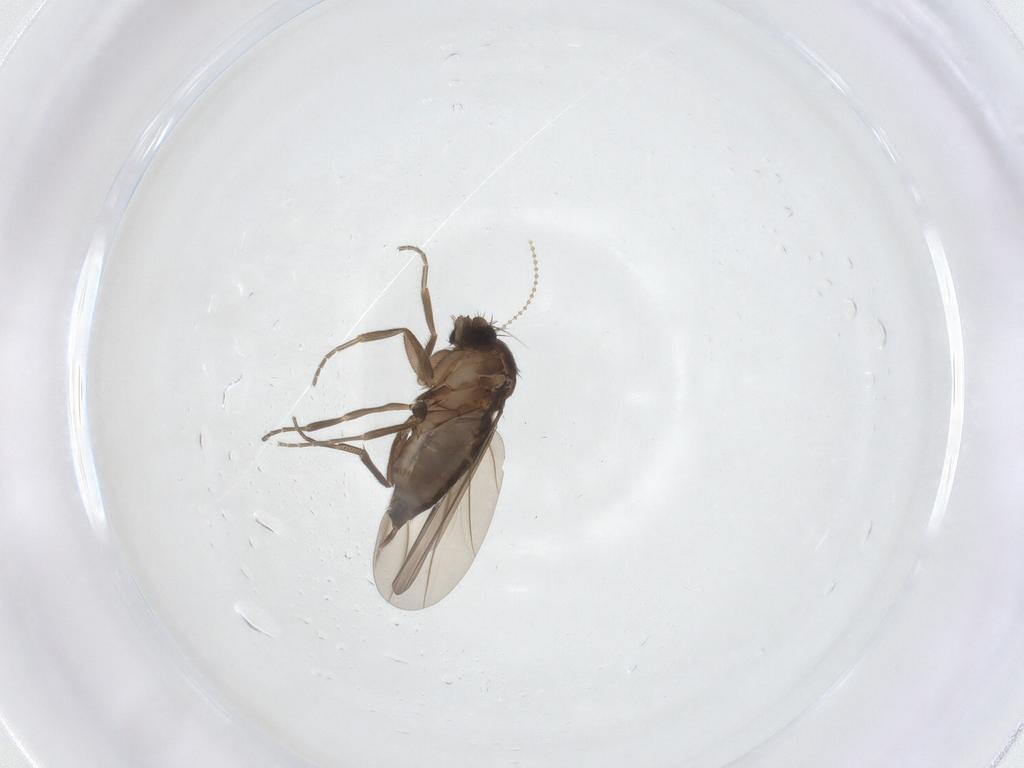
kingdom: Animalia
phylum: Arthropoda
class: Insecta
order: Diptera
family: Phoridae
